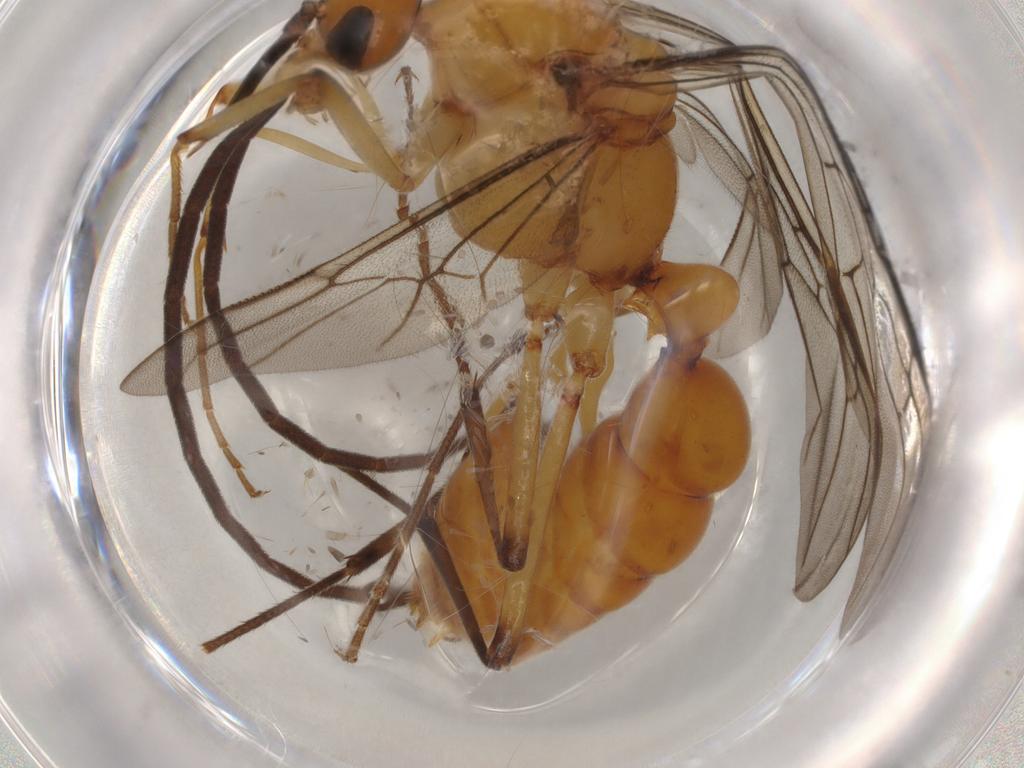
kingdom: Animalia
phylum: Arthropoda
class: Insecta
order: Hymenoptera
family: Formicidae
